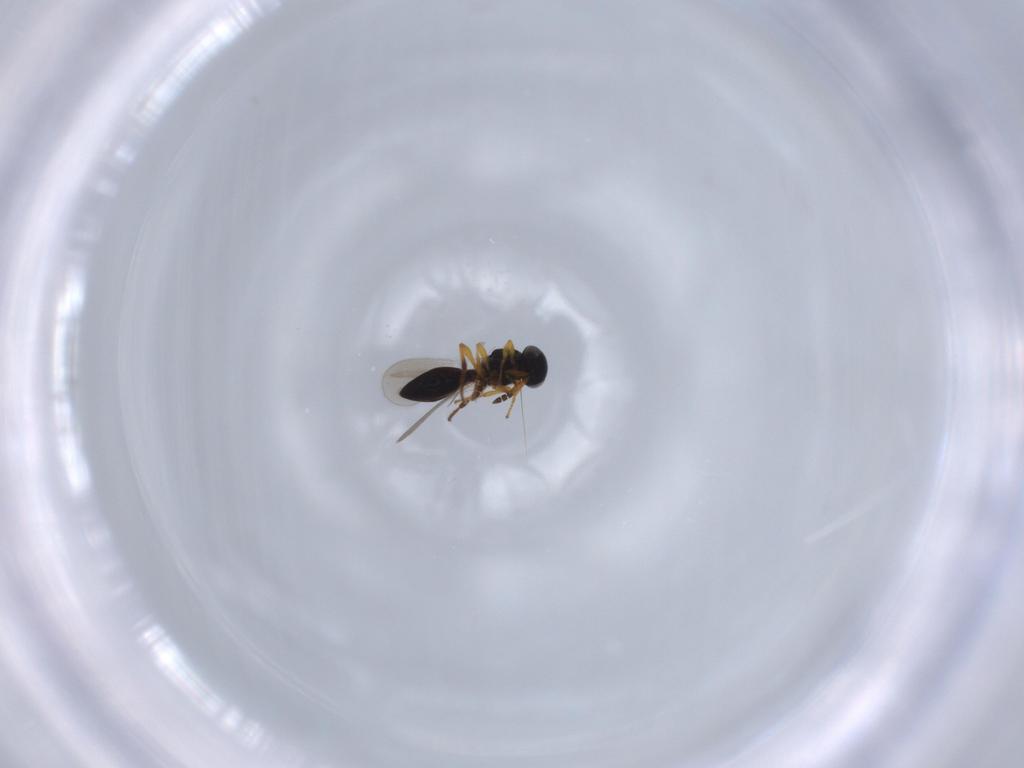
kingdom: Animalia
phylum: Arthropoda
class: Insecta
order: Hymenoptera
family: Platygastridae
